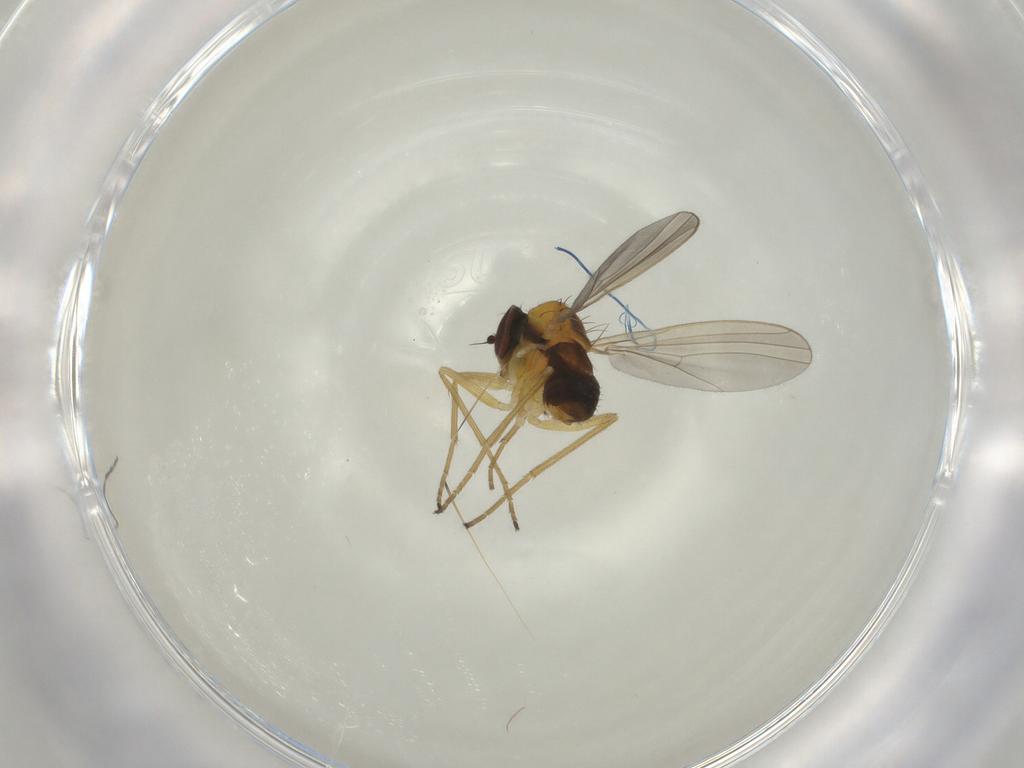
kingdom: Animalia
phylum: Arthropoda
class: Insecta
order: Diptera
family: Dolichopodidae
